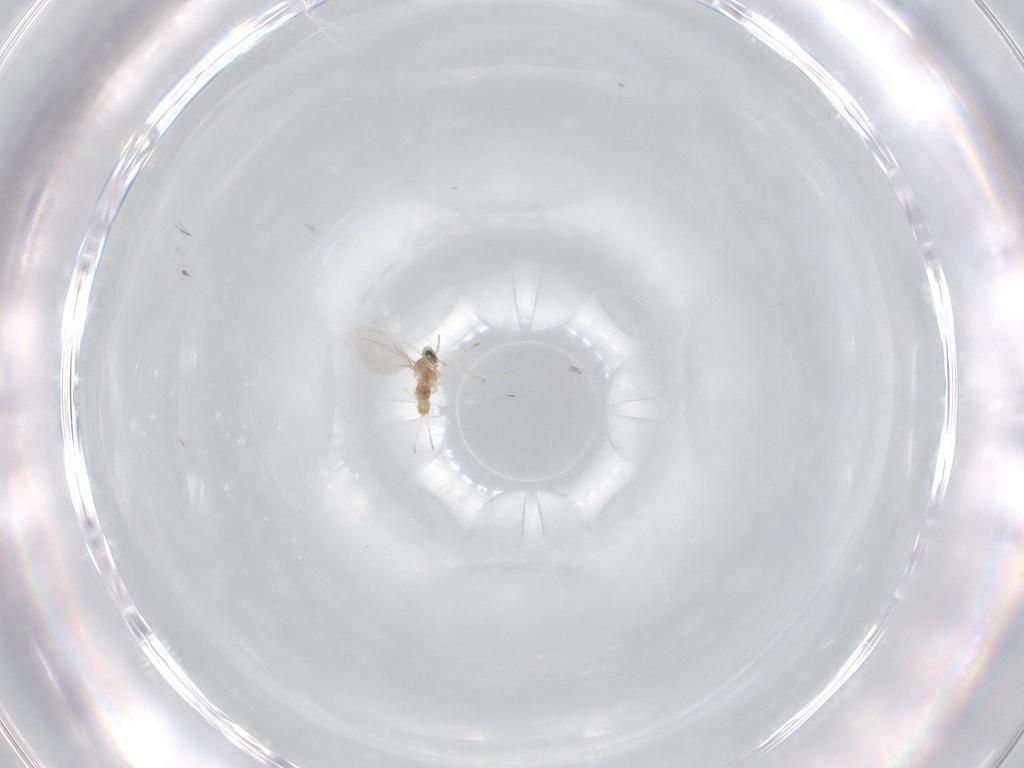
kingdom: Animalia
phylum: Arthropoda
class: Insecta
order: Diptera
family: Cecidomyiidae
